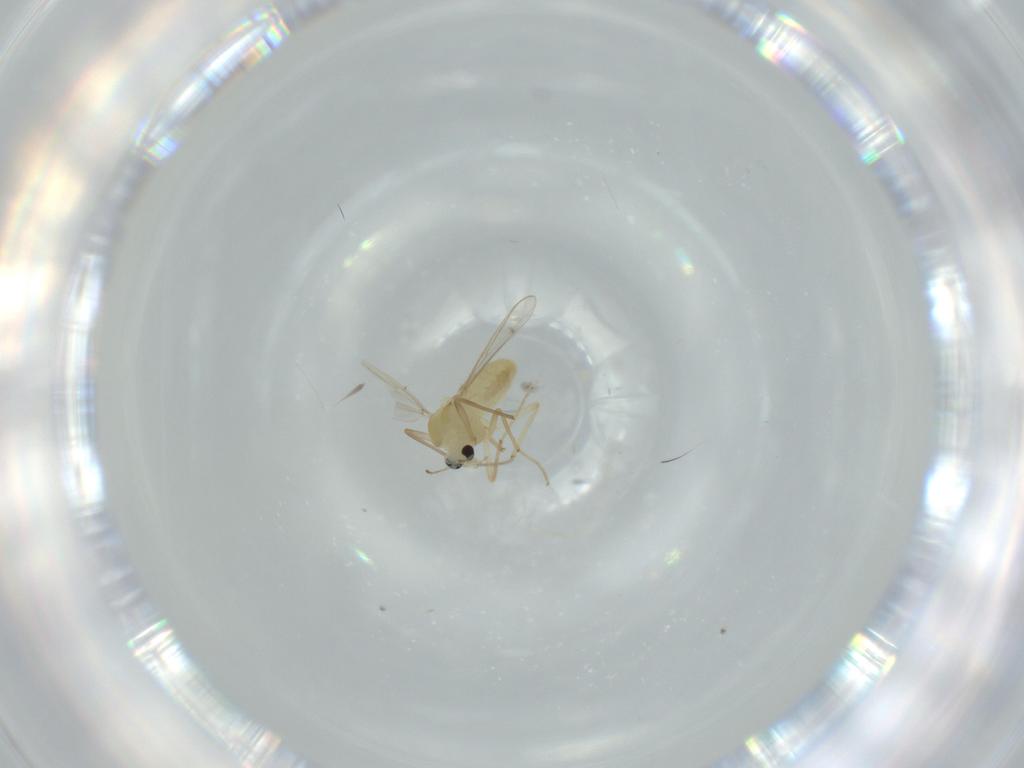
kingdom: Animalia
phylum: Arthropoda
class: Insecta
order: Diptera
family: Chironomidae
